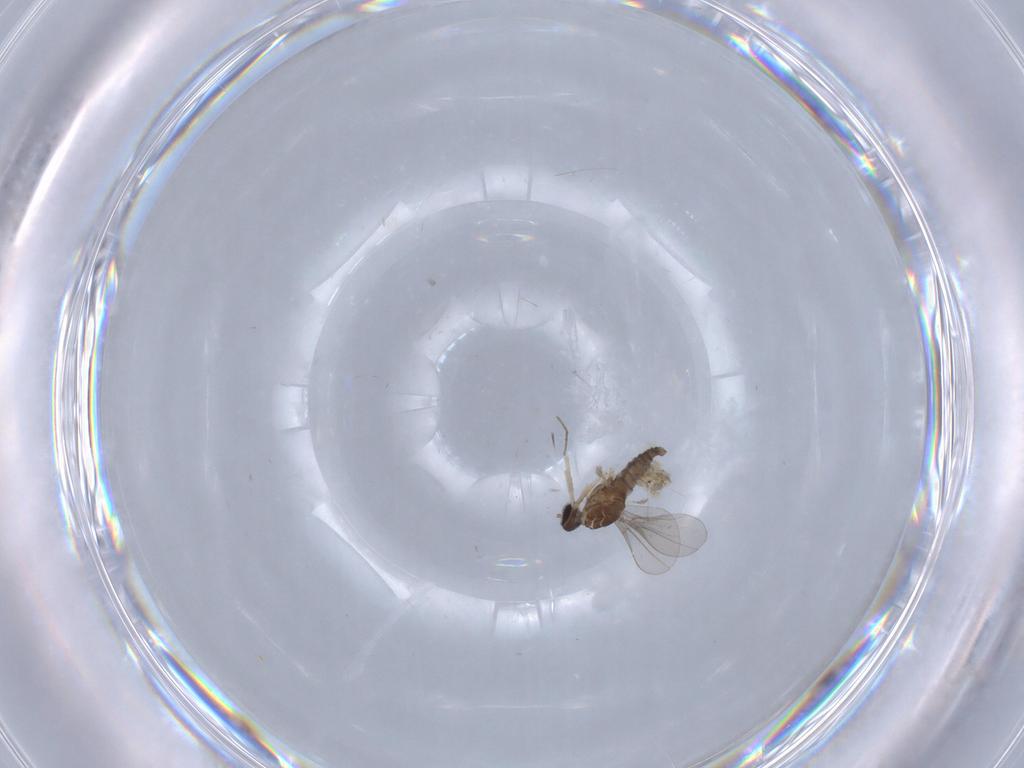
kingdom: Animalia
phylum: Arthropoda
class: Insecta
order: Diptera
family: Cecidomyiidae
